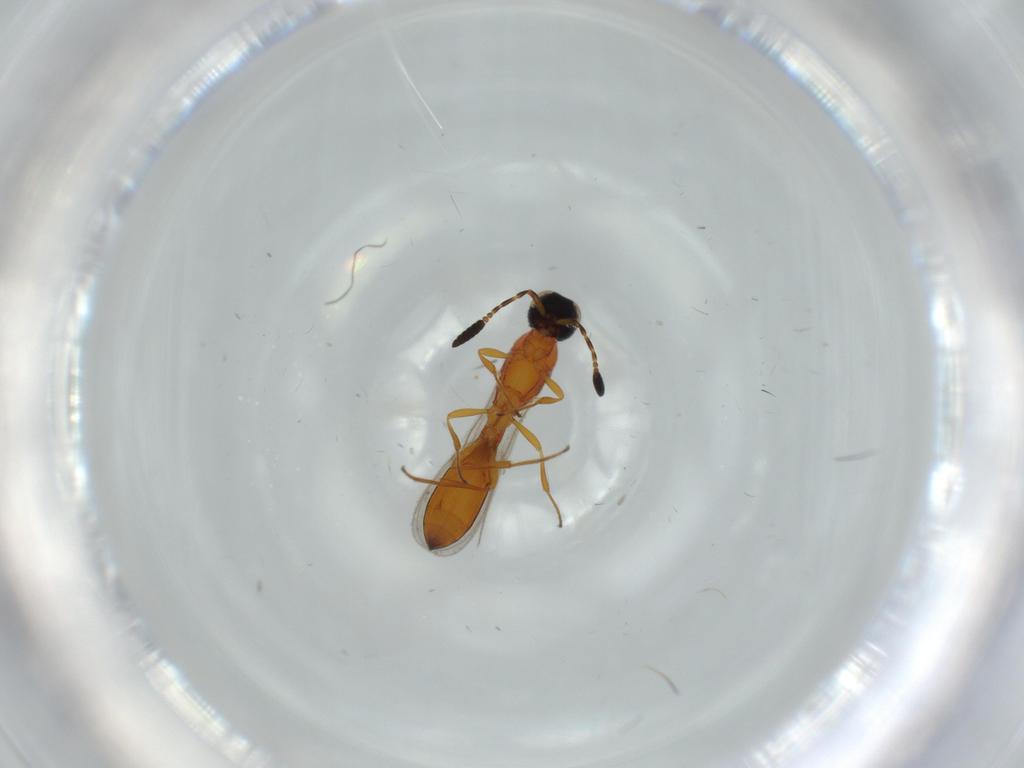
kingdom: Animalia
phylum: Arthropoda
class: Insecta
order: Hymenoptera
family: Scelionidae
